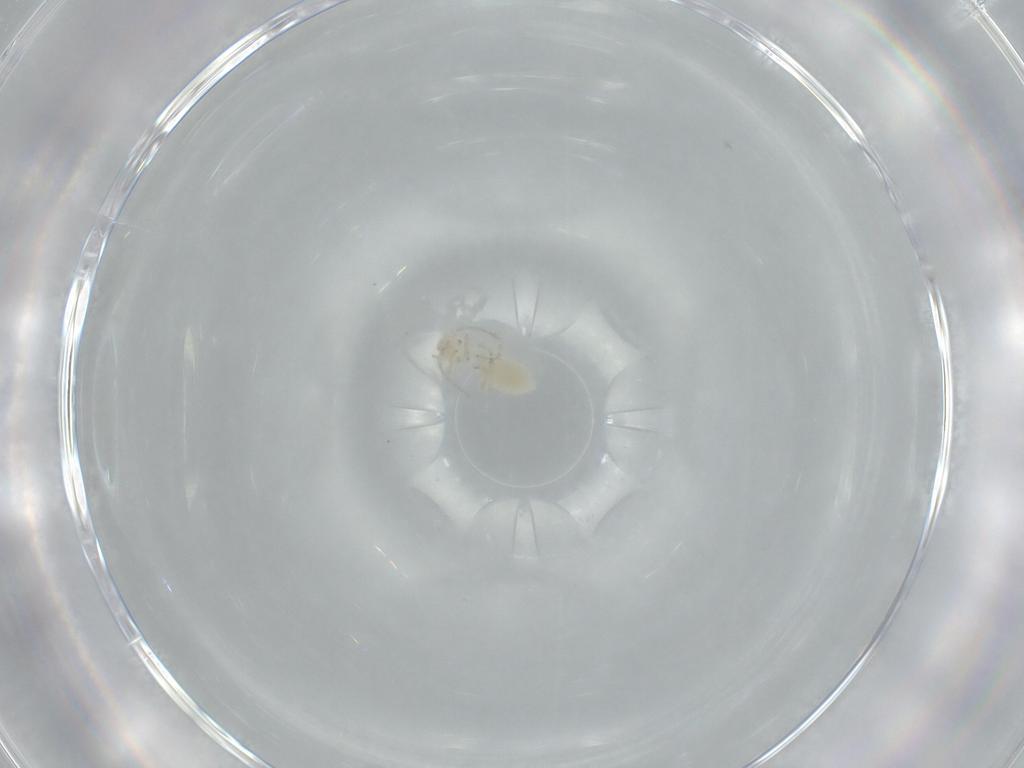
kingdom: Animalia
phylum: Arthropoda
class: Insecta
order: Psocodea
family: Caeciliusidae
